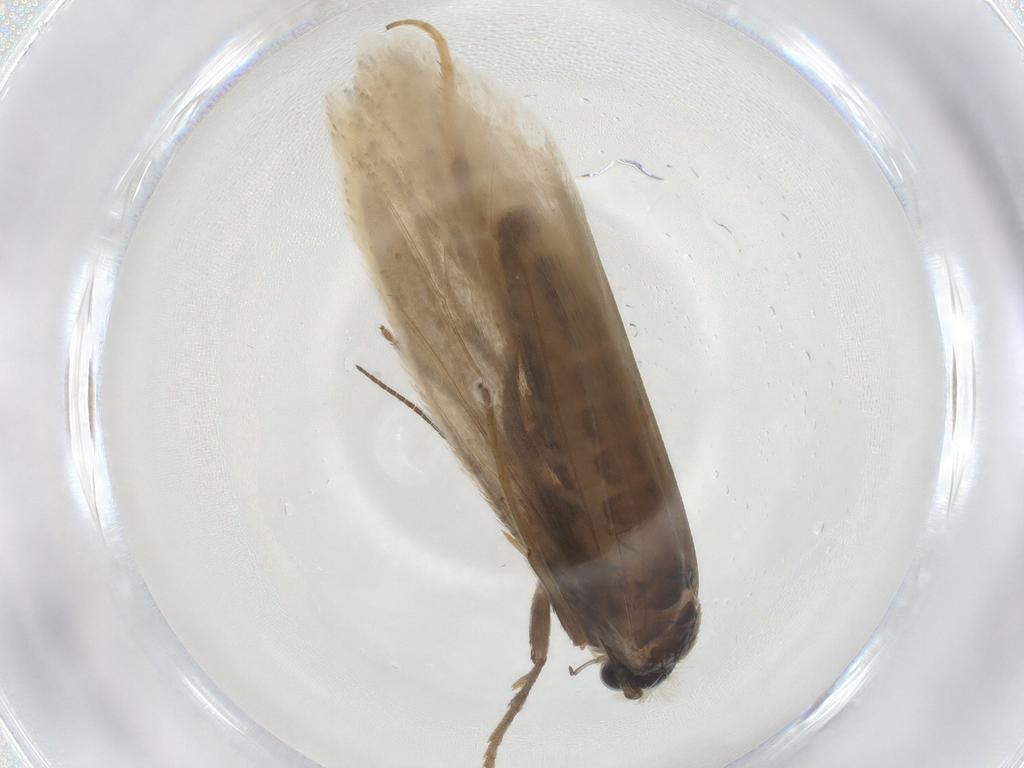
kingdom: Animalia
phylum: Arthropoda
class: Insecta
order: Lepidoptera
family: Tridentaformidae
